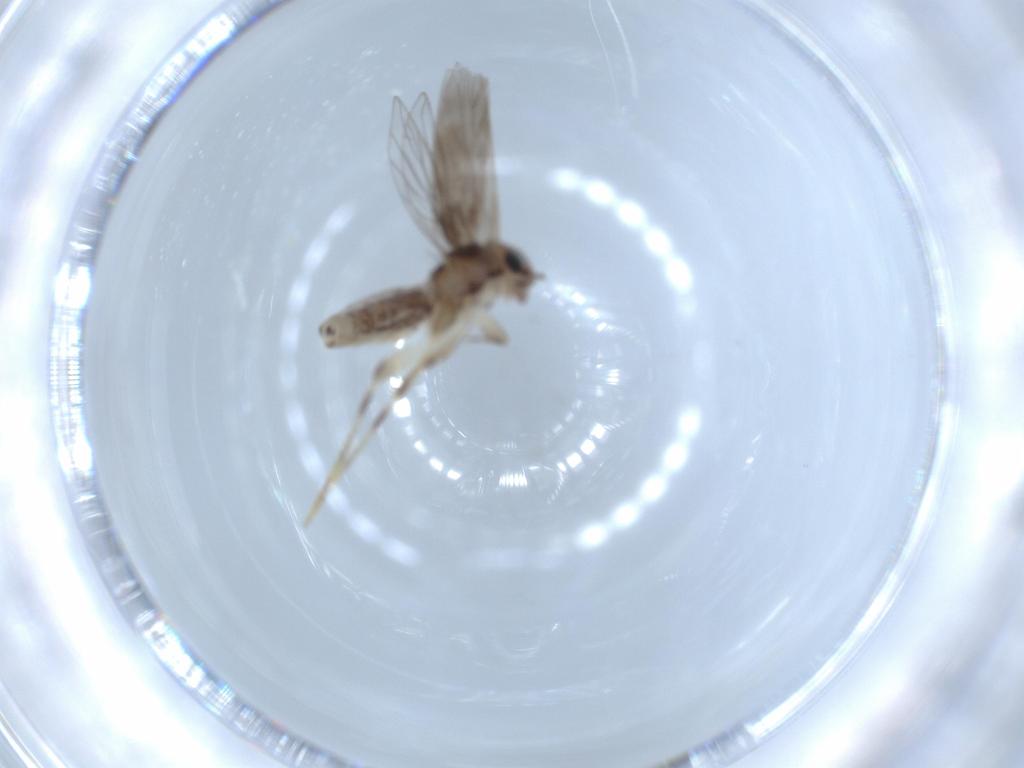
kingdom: Animalia
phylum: Arthropoda
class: Insecta
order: Psocodea
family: Lepidopsocidae
